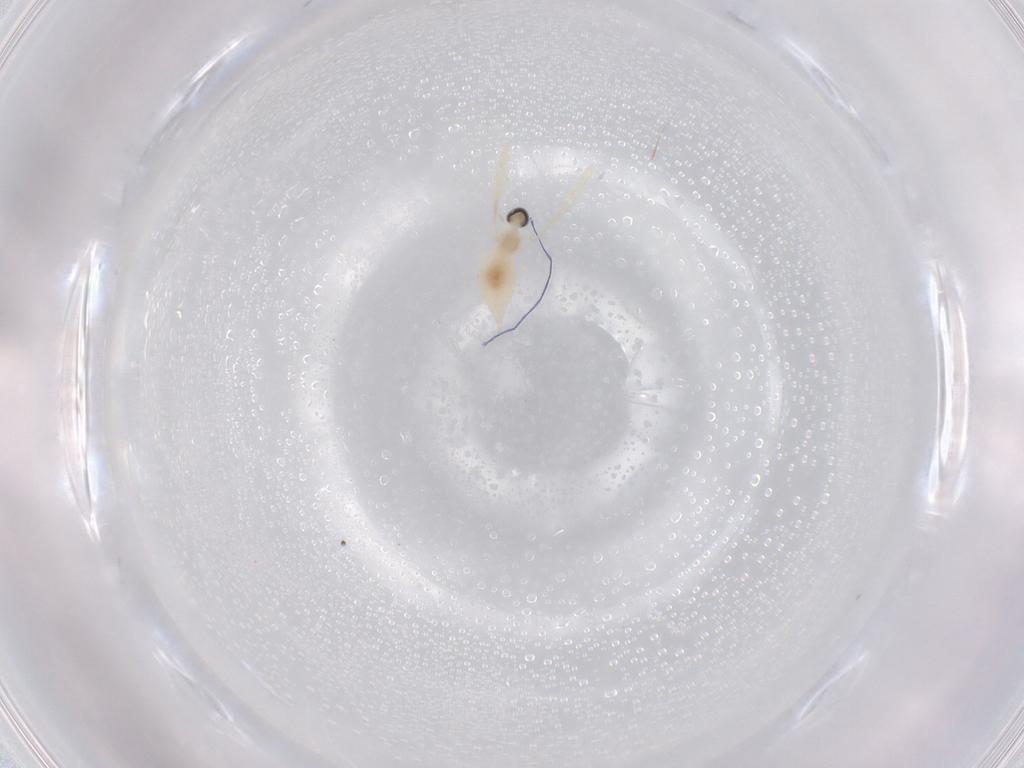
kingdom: Animalia
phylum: Arthropoda
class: Insecta
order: Diptera
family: Cecidomyiidae
